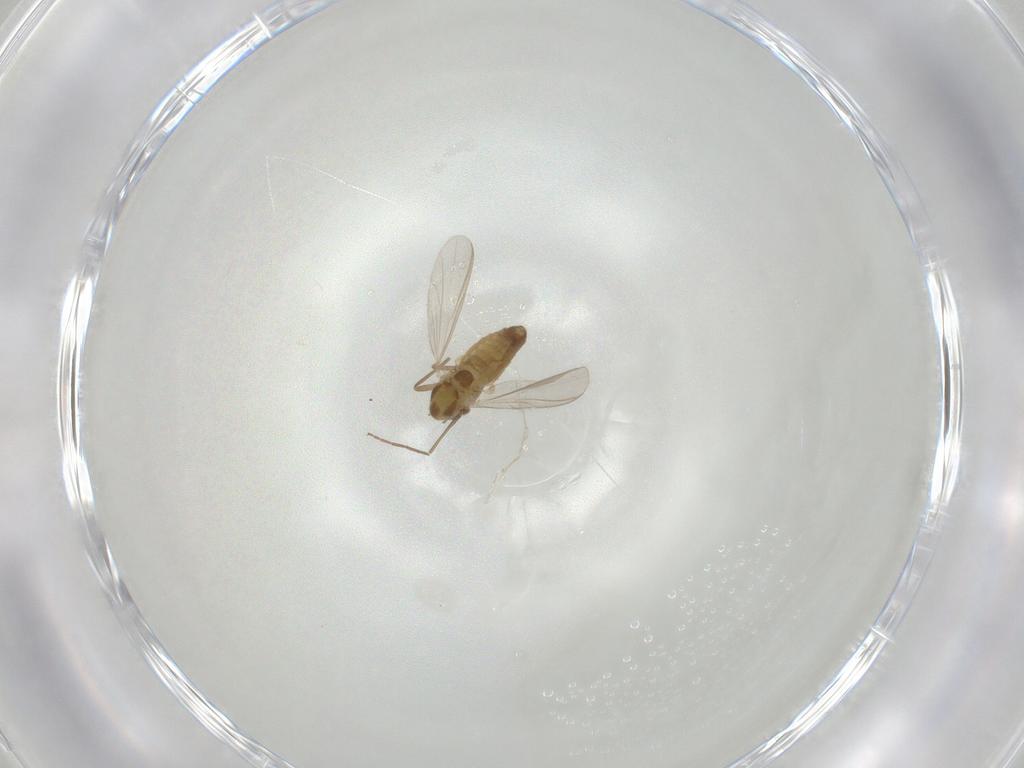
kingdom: Animalia
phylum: Arthropoda
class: Insecta
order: Diptera
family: Chironomidae
